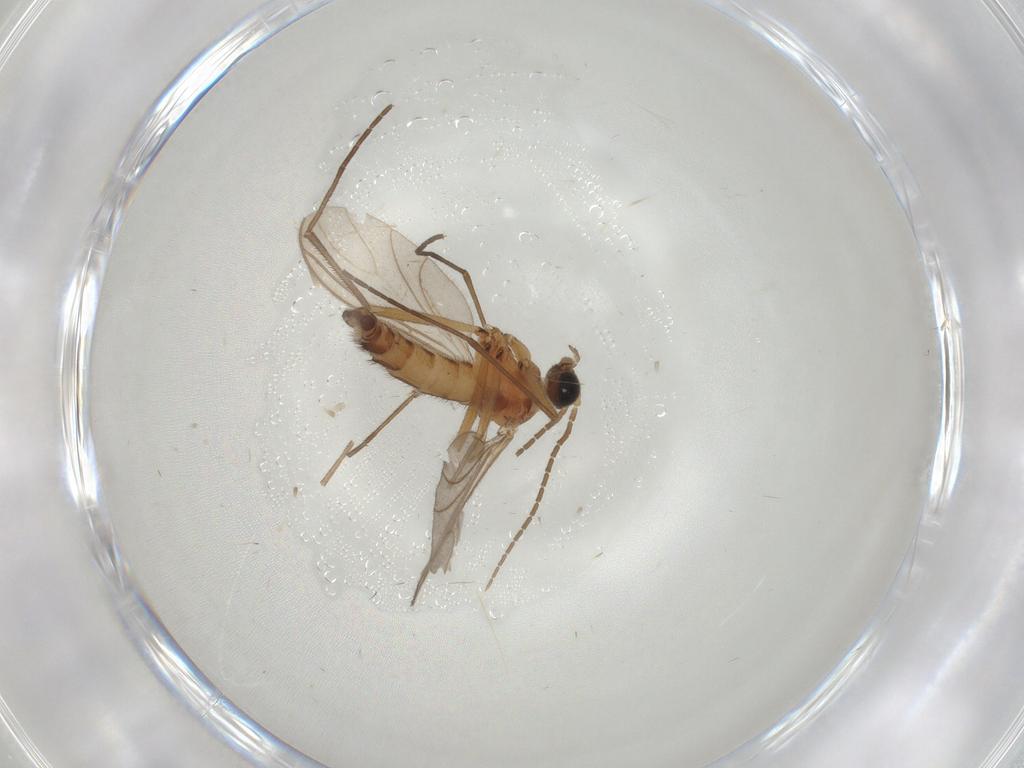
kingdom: Animalia
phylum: Arthropoda
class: Insecta
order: Diptera
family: Sciaridae
